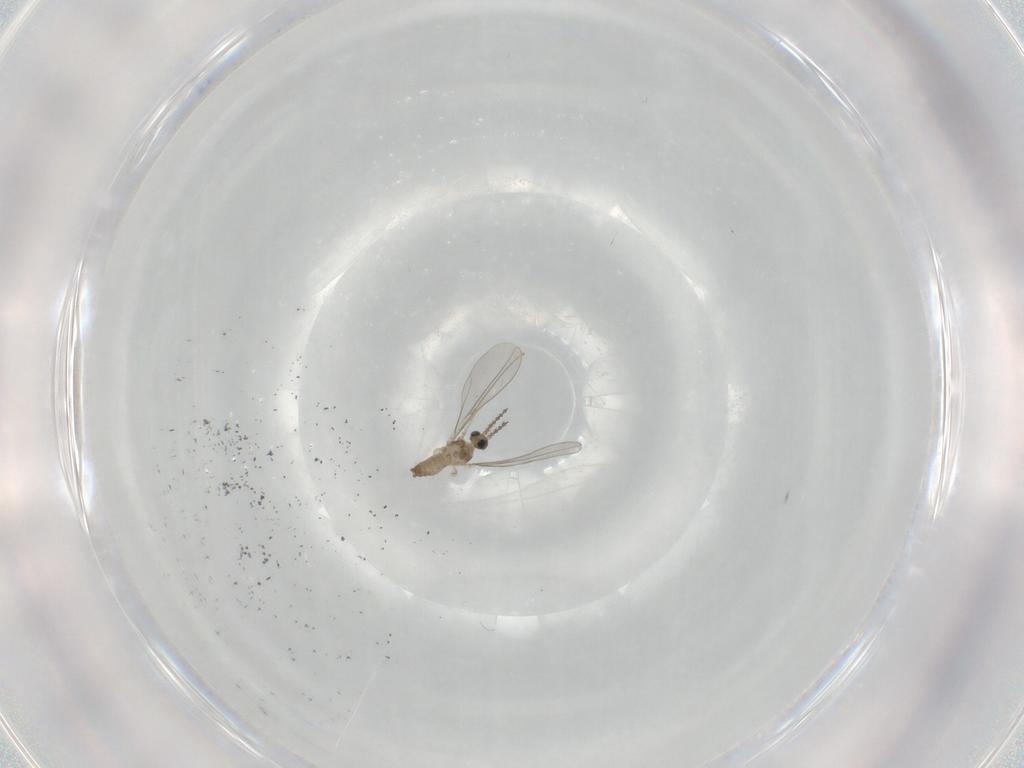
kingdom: Animalia
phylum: Arthropoda
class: Insecta
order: Diptera
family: Cecidomyiidae
